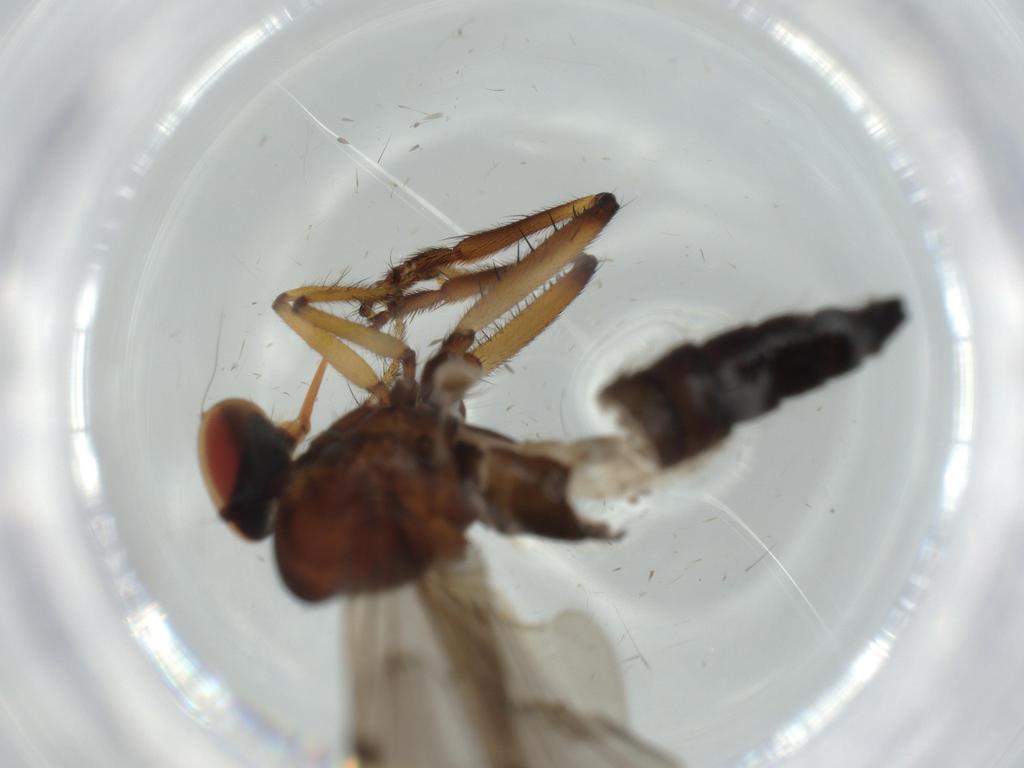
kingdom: Animalia
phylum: Arthropoda
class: Insecta
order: Diptera
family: Hybotidae
